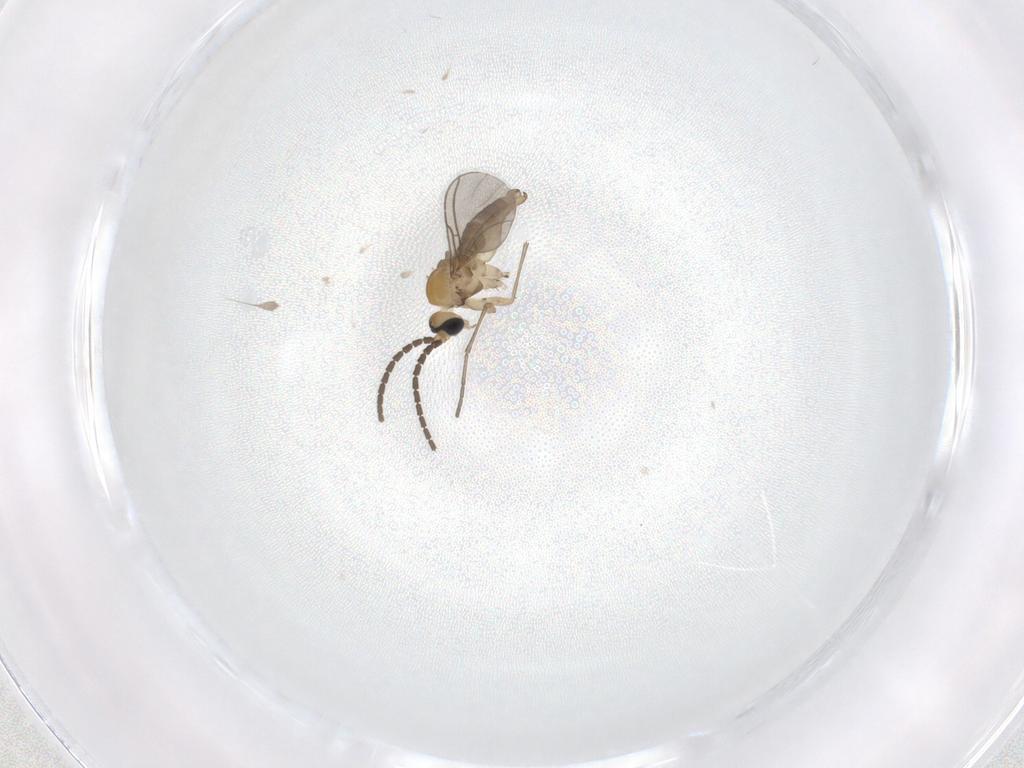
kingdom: Animalia
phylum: Arthropoda
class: Insecta
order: Diptera
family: Sciaridae
